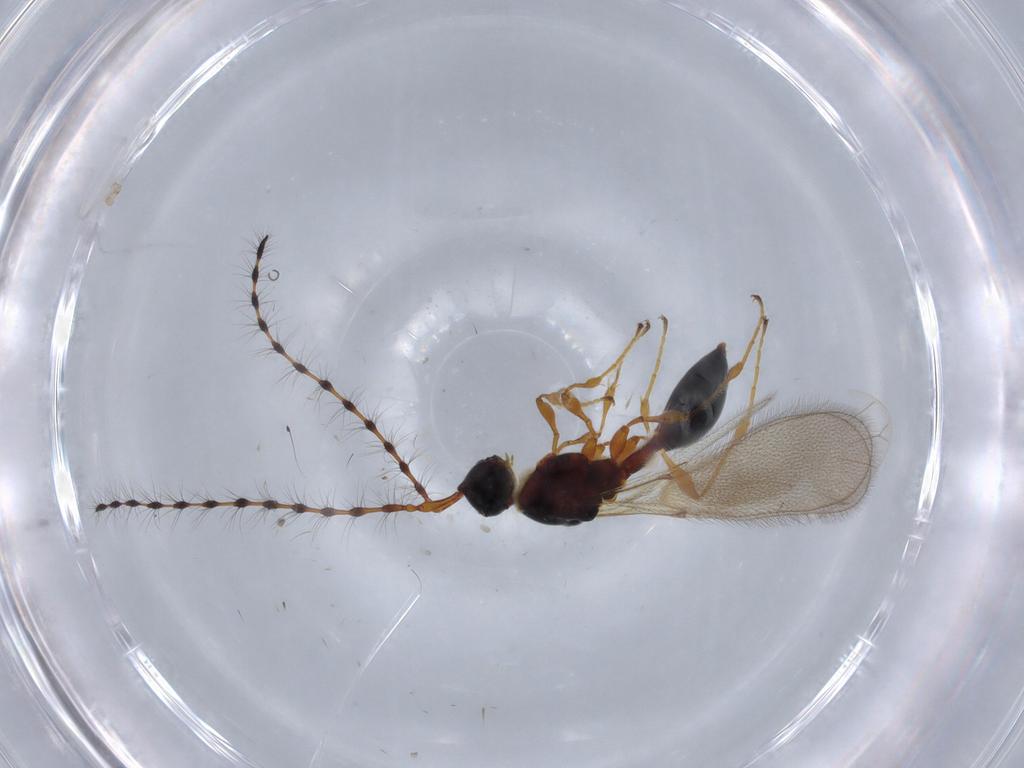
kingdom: Animalia
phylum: Arthropoda
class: Insecta
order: Hymenoptera
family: Diapriidae
